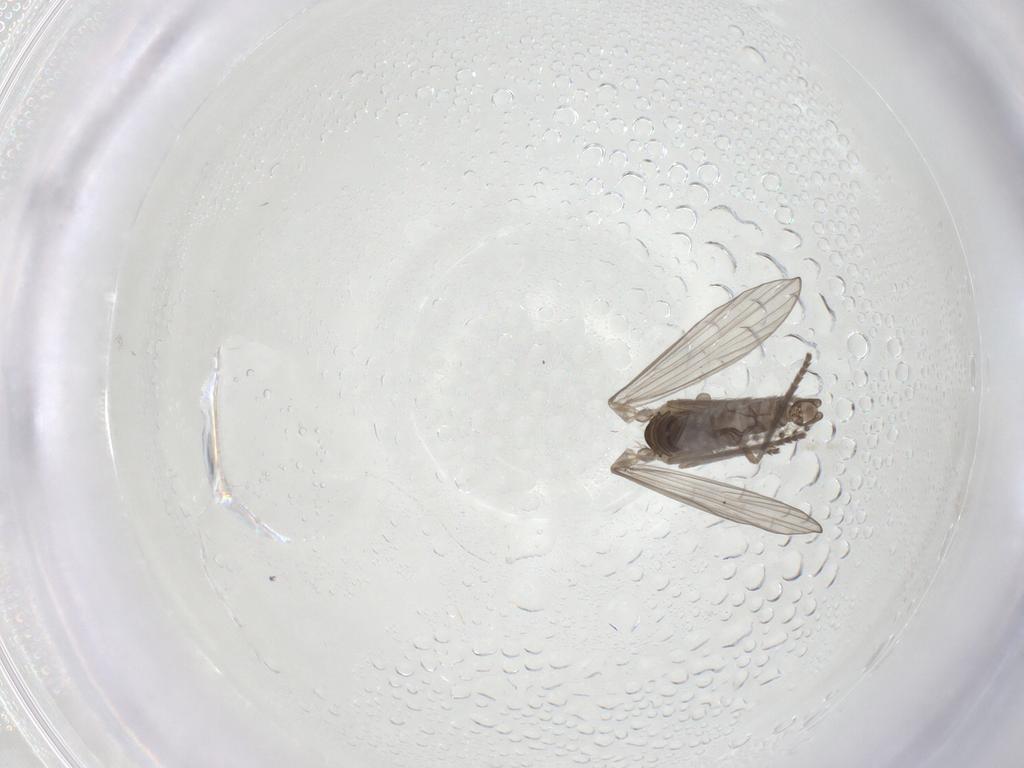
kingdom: Animalia
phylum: Arthropoda
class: Insecta
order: Diptera
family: Psychodidae
